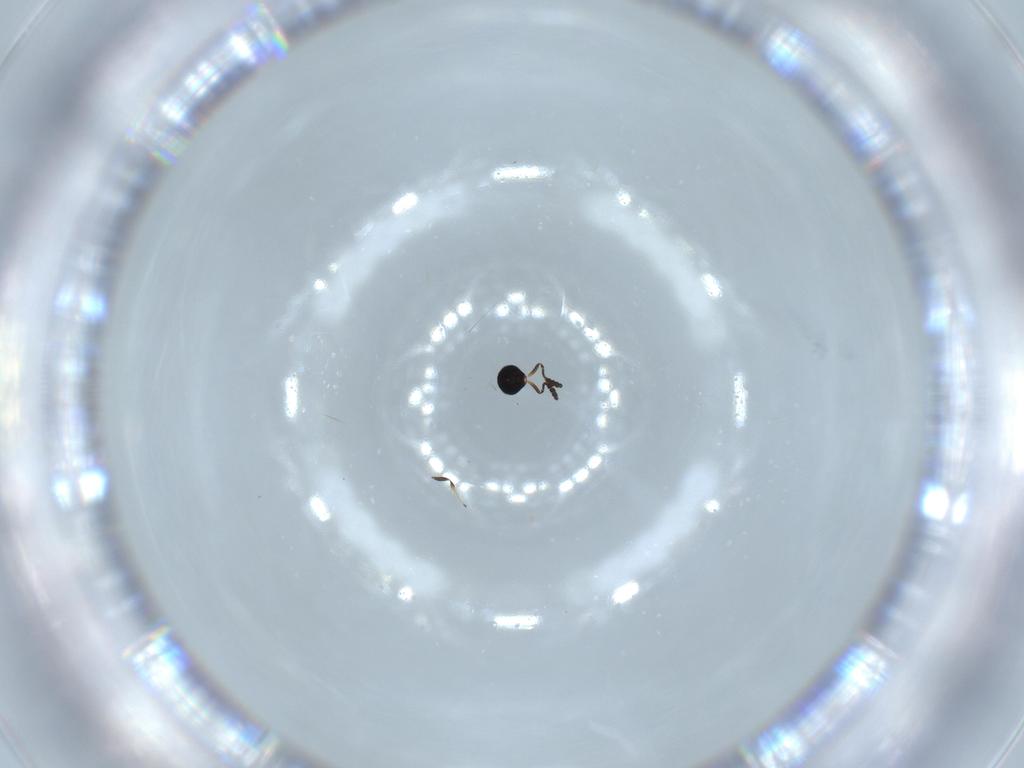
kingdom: Animalia
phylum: Arthropoda
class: Insecta
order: Hymenoptera
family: Scelionidae
